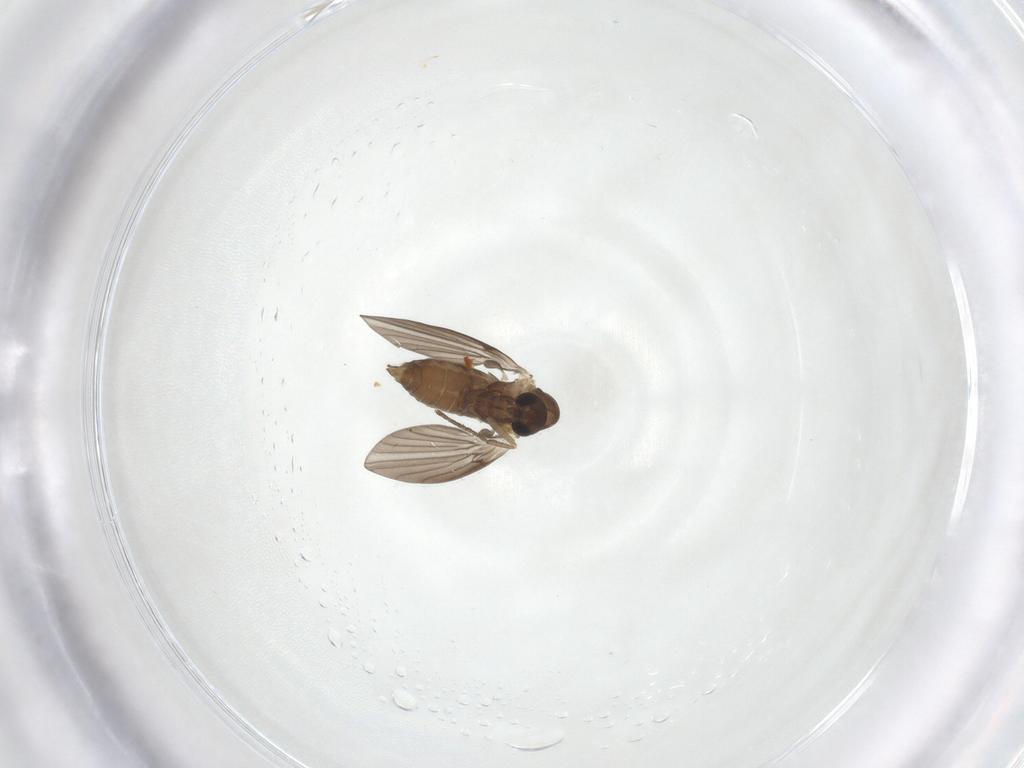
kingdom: Animalia
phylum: Arthropoda
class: Insecta
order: Diptera
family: Psychodidae
